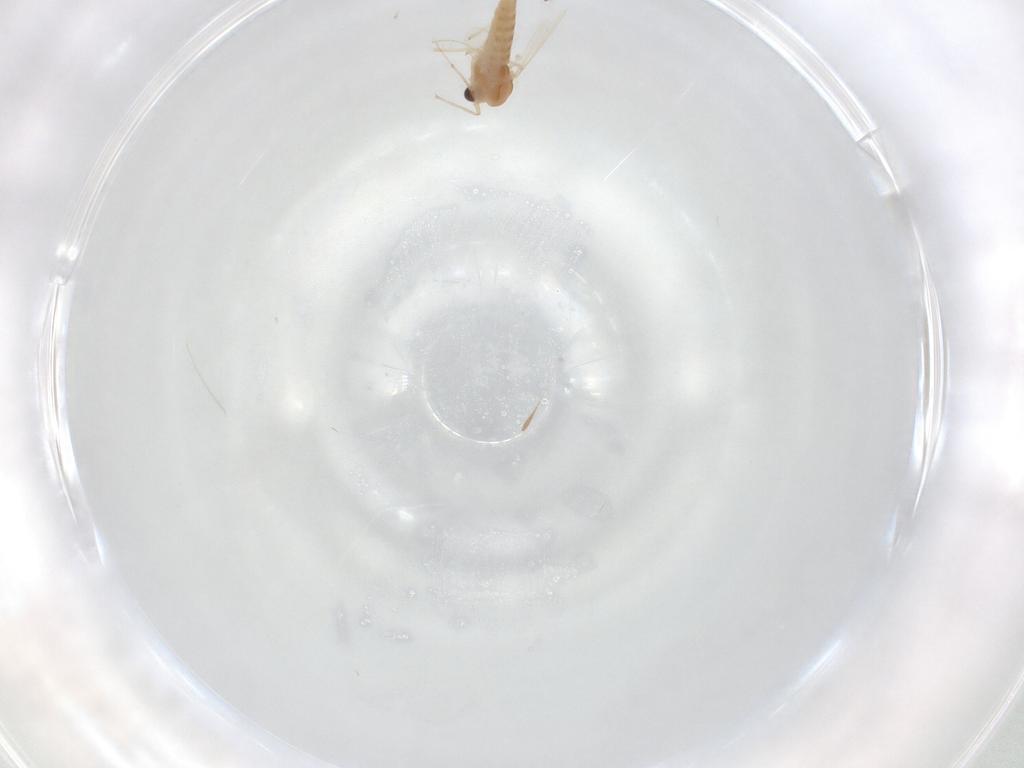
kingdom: Animalia
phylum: Arthropoda
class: Insecta
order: Diptera
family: Chironomidae
